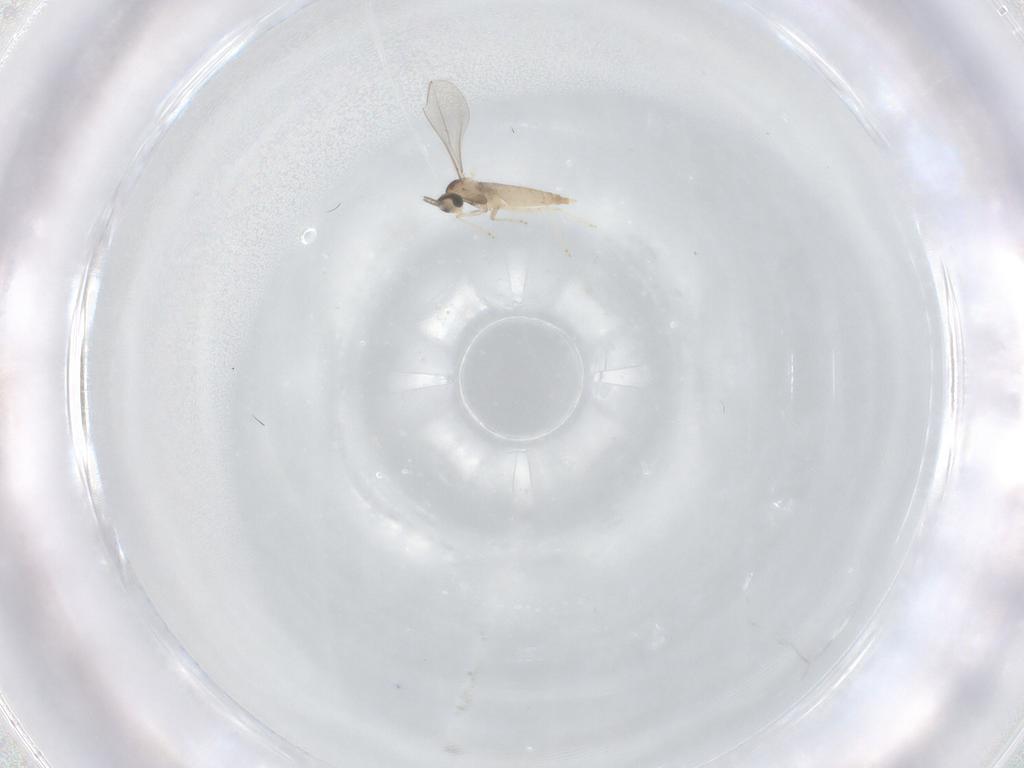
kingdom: Animalia
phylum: Arthropoda
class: Insecta
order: Diptera
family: Cecidomyiidae
